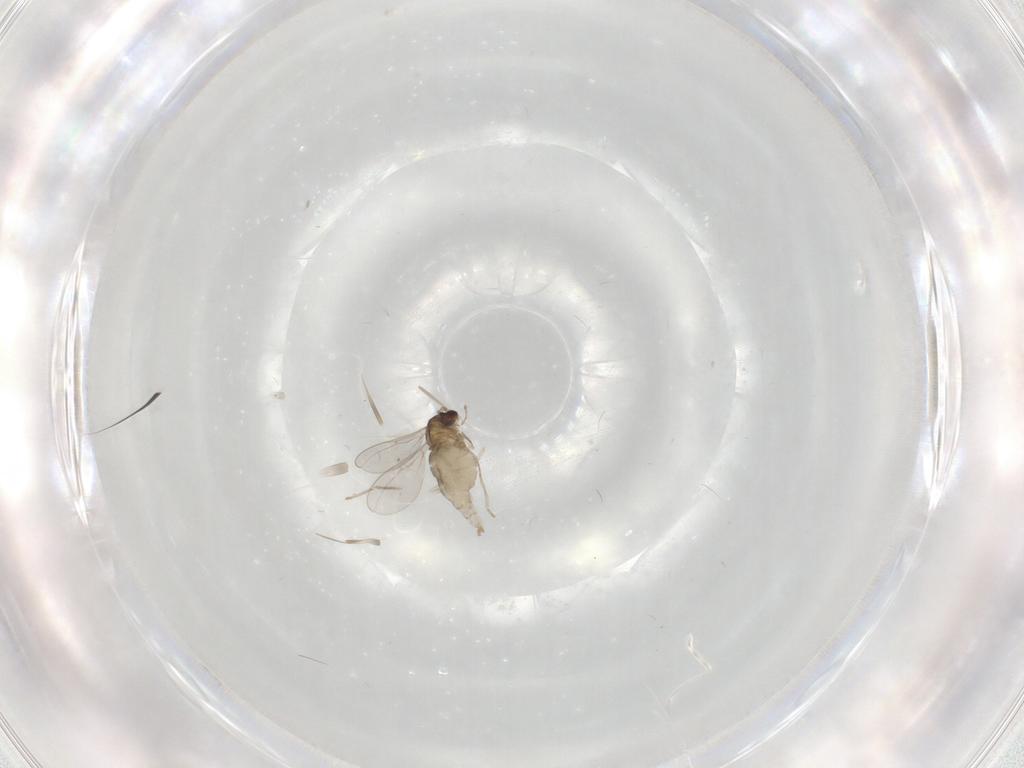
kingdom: Animalia
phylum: Arthropoda
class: Insecta
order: Diptera
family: Cecidomyiidae
